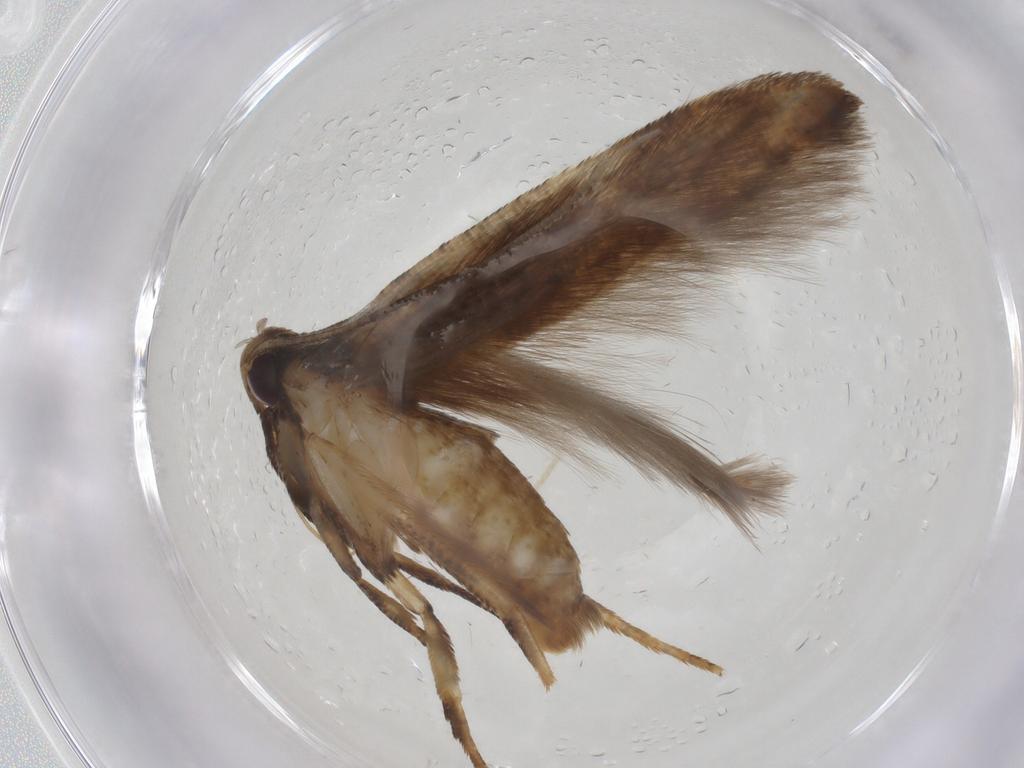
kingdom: Animalia
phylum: Arthropoda
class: Insecta
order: Lepidoptera
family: Gelechiidae
